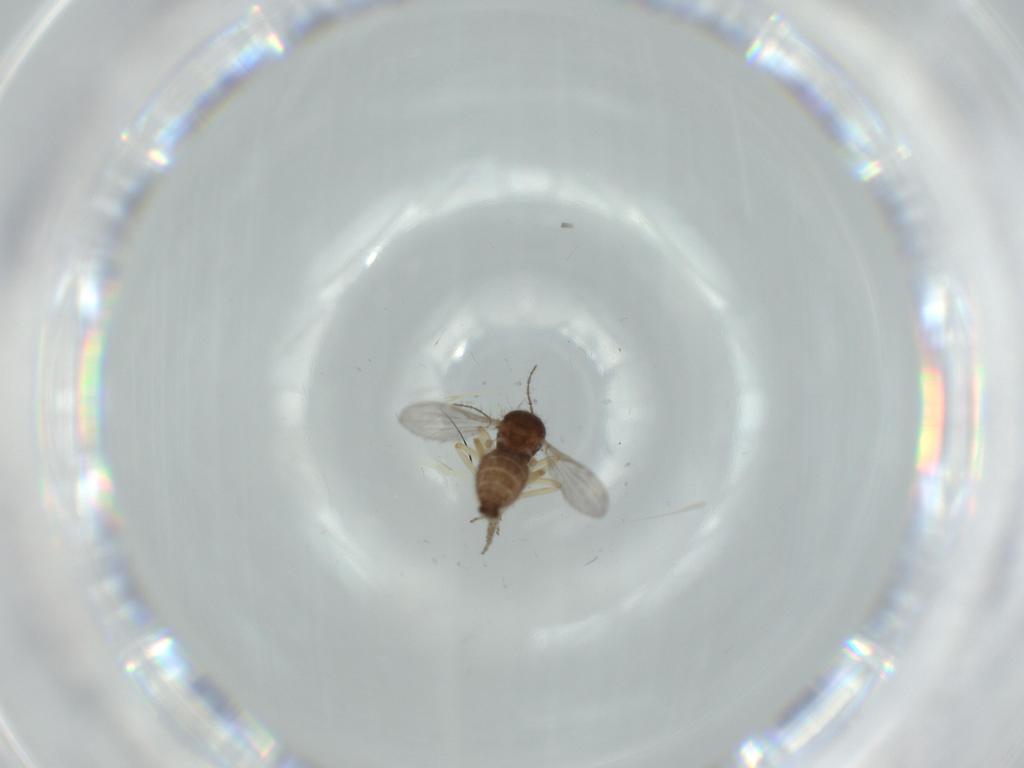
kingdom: Animalia
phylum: Arthropoda
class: Insecta
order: Diptera
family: Ceratopogonidae
